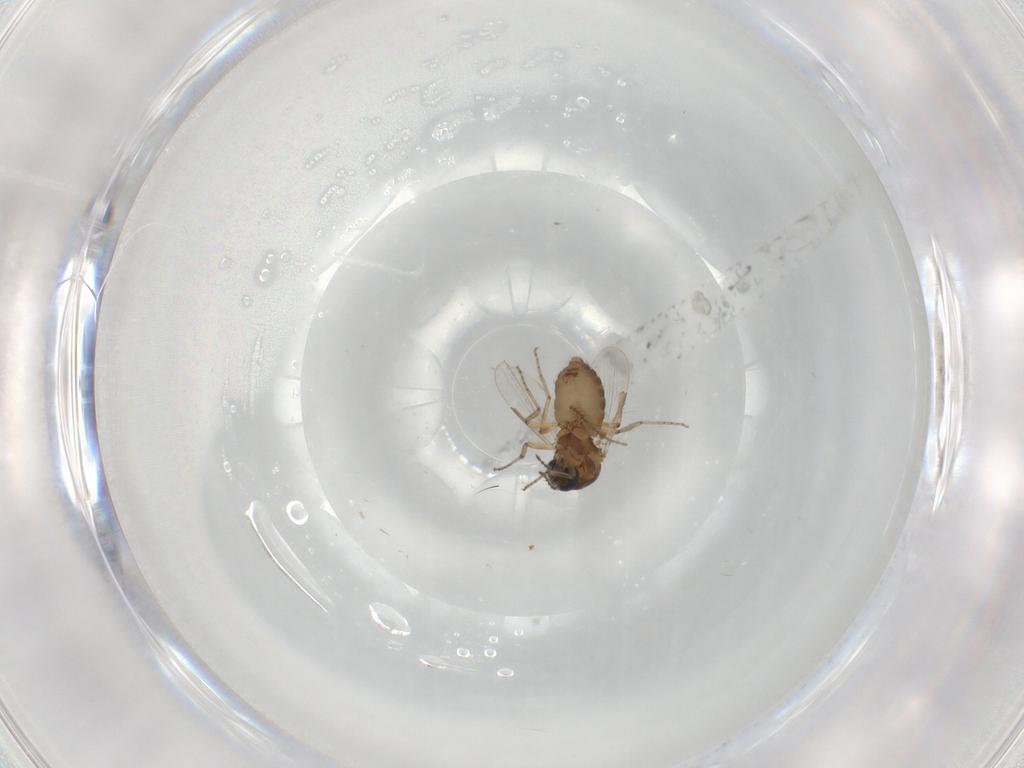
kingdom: Animalia
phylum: Arthropoda
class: Insecta
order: Diptera
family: Ceratopogonidae
